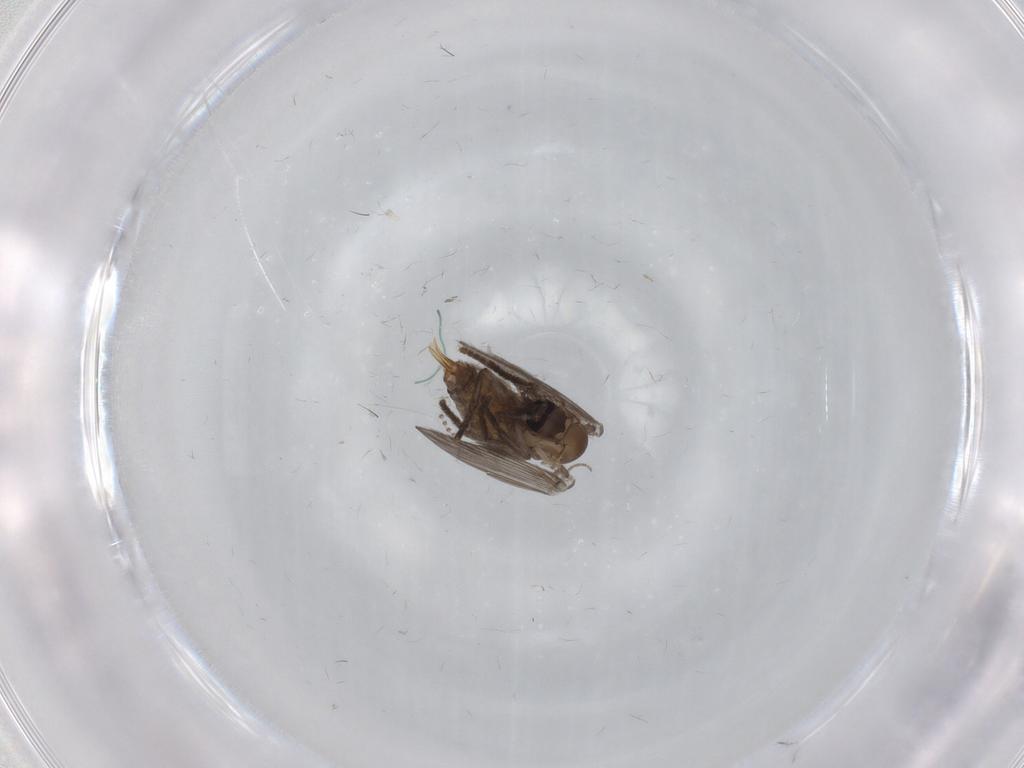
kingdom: Animalia
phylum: Arthropoda
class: Insecta
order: Diptera
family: Psychodidae
